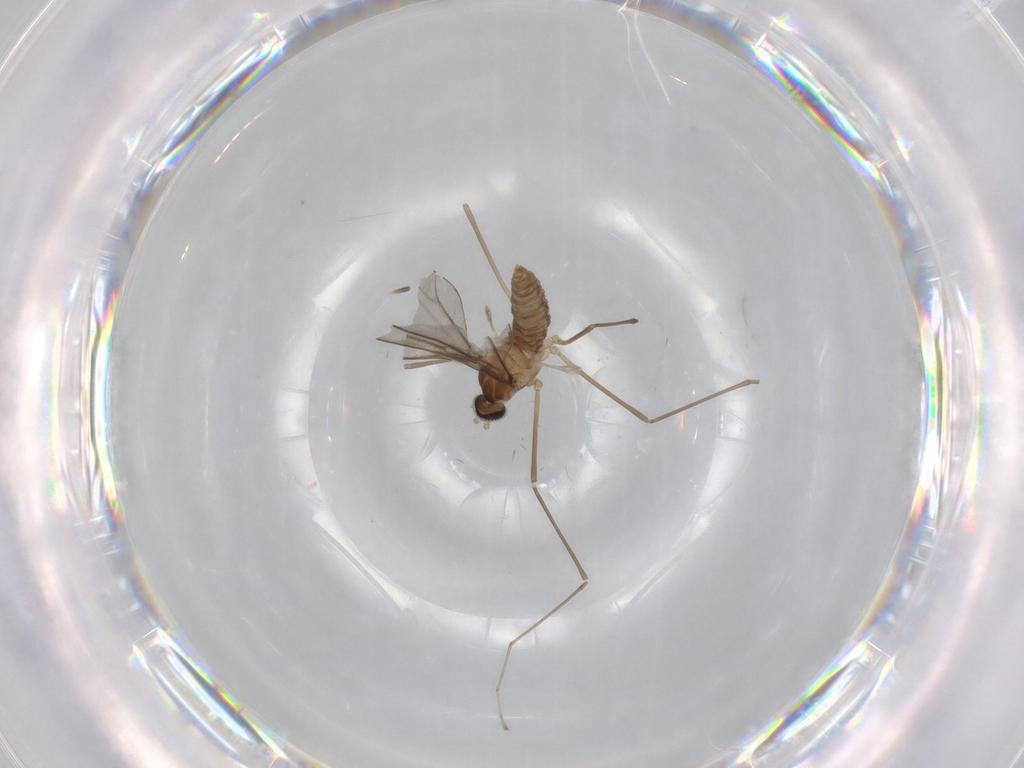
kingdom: Animalia
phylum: Arthropoda
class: Insecta
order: Diptera
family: Cecidomyiidae
